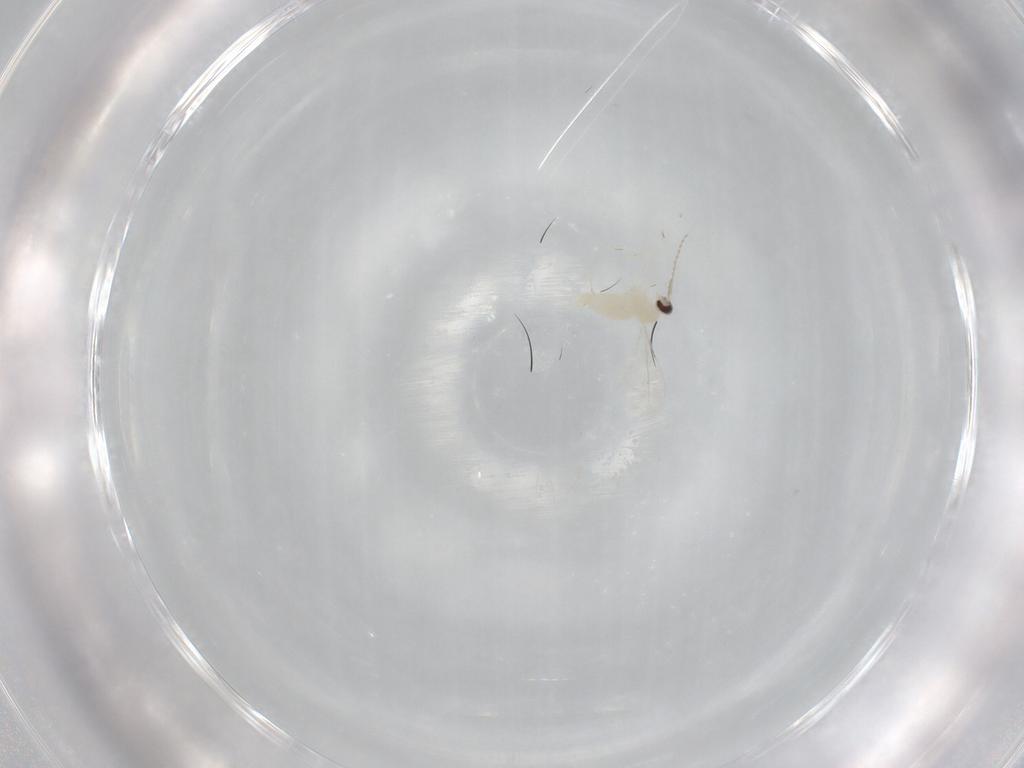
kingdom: Animalia
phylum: Arthropoda
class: Insecta
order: Diptera
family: Cecidomyiidae
